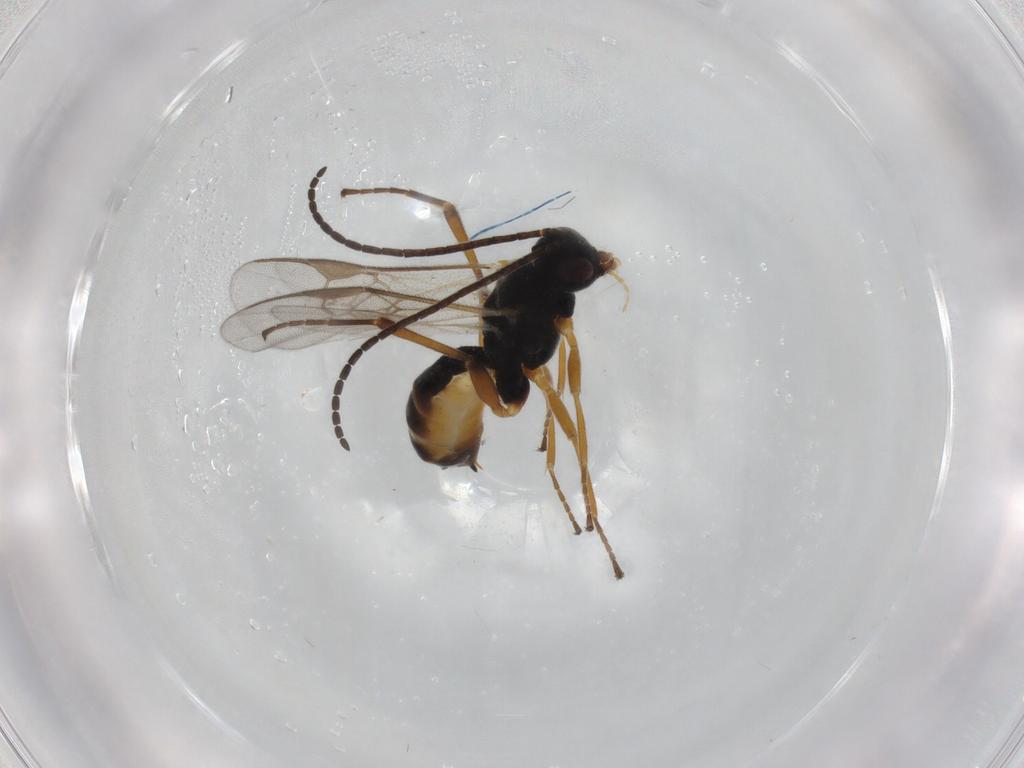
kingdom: Animalia
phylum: Arthropoda
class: Insecta
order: Hymenoptera
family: Braconidae
